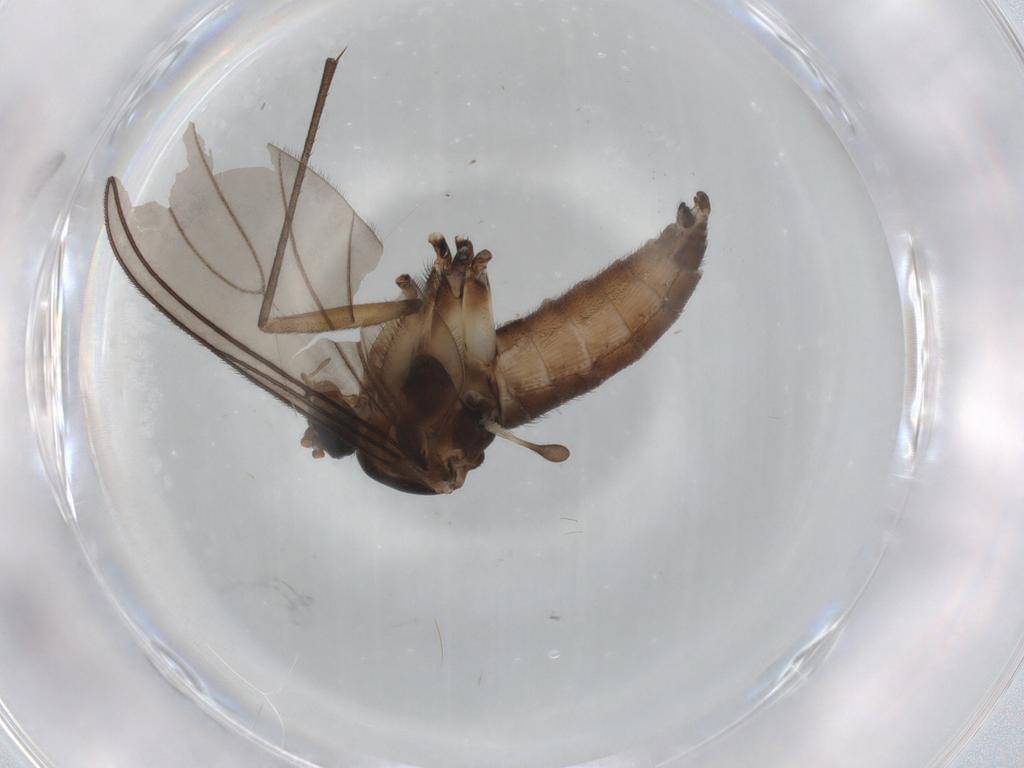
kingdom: Animalia
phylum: Arthropoda
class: Insecta
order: Diptera
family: Sciaridae
